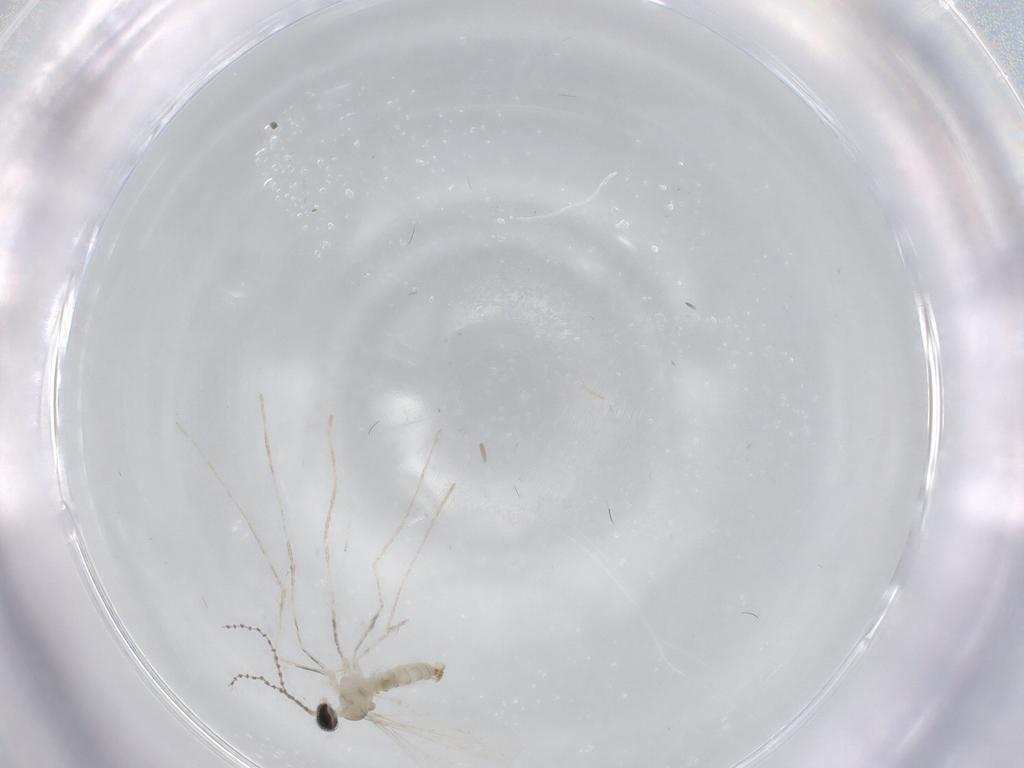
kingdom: Animalia
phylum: Arthropoda
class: Insecta
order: Diptera
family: Cecidomyiidae
